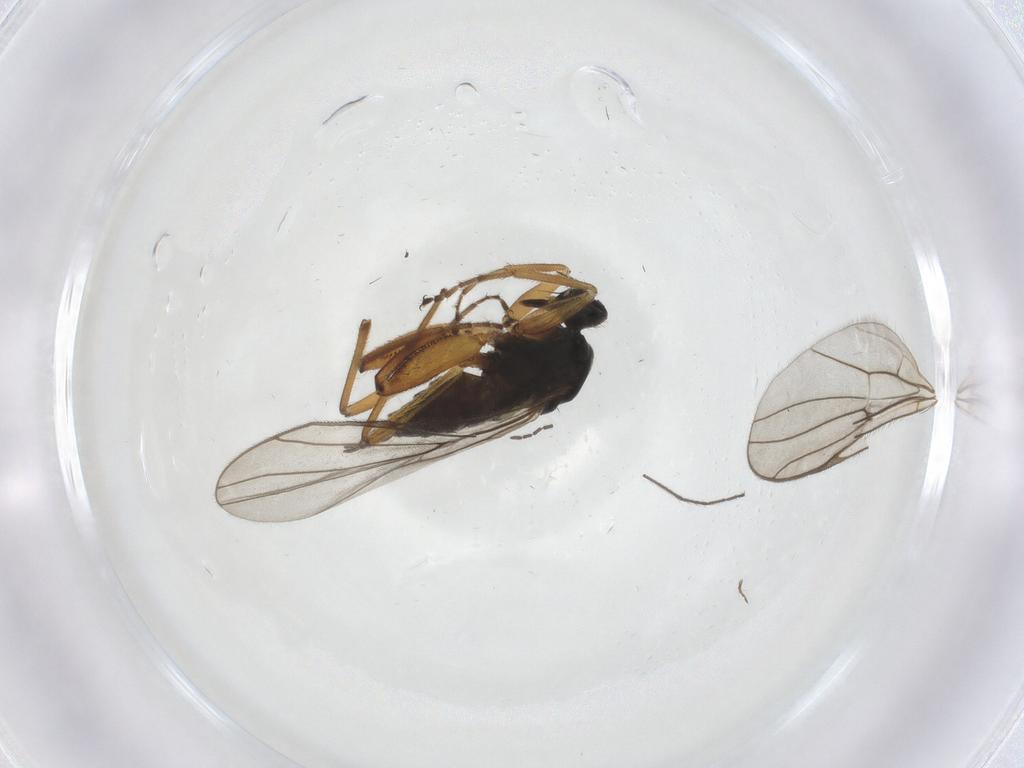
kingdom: Animalia
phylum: Arthropoda
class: Insecta
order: Diptera
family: Hybotidae
